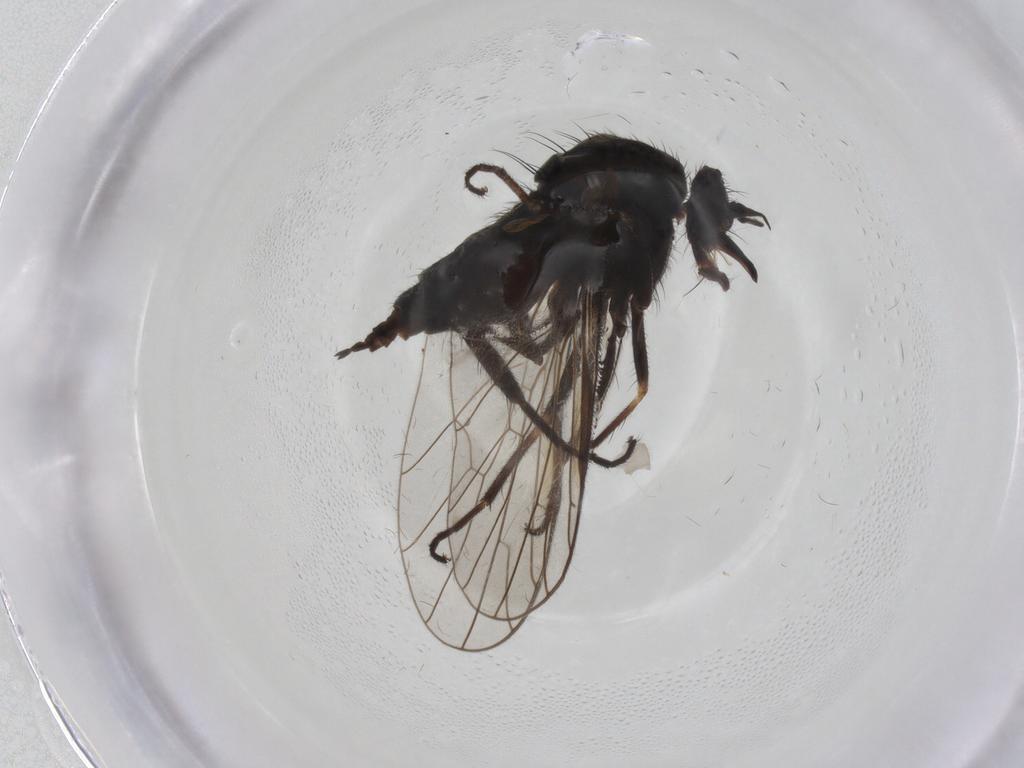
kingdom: Animalia
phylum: Arthropoda
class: Insecta
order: Diptera
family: Empididae
